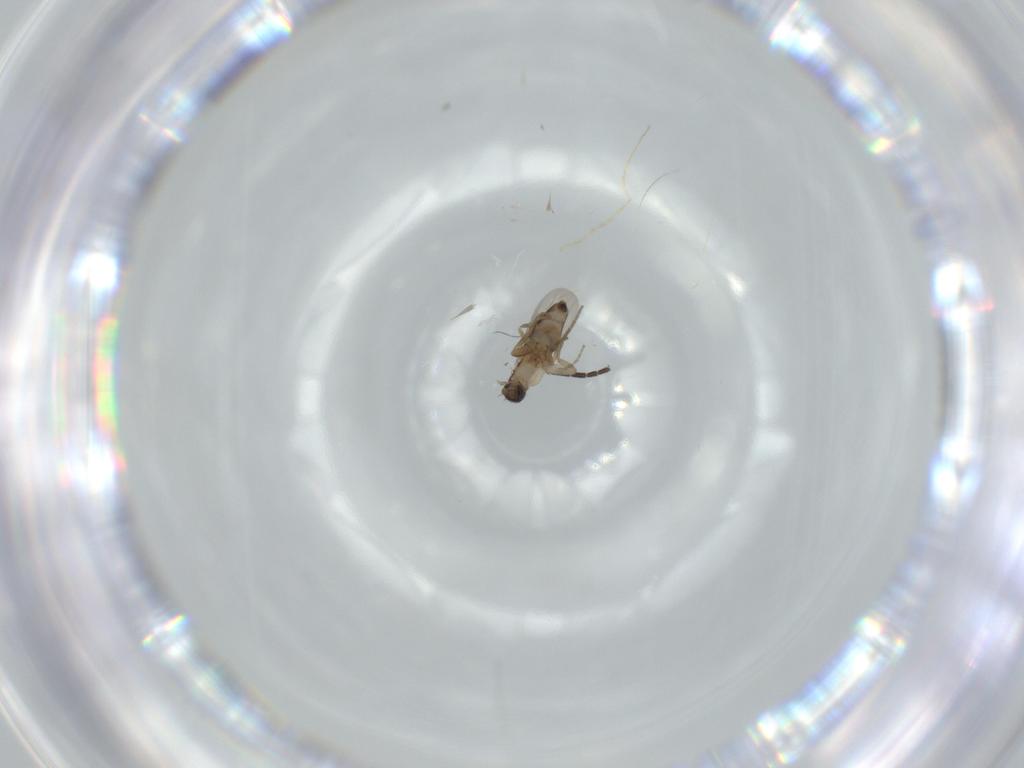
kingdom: Animalia
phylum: Arthropoda
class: Insecta
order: Diptera
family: Phoridae
